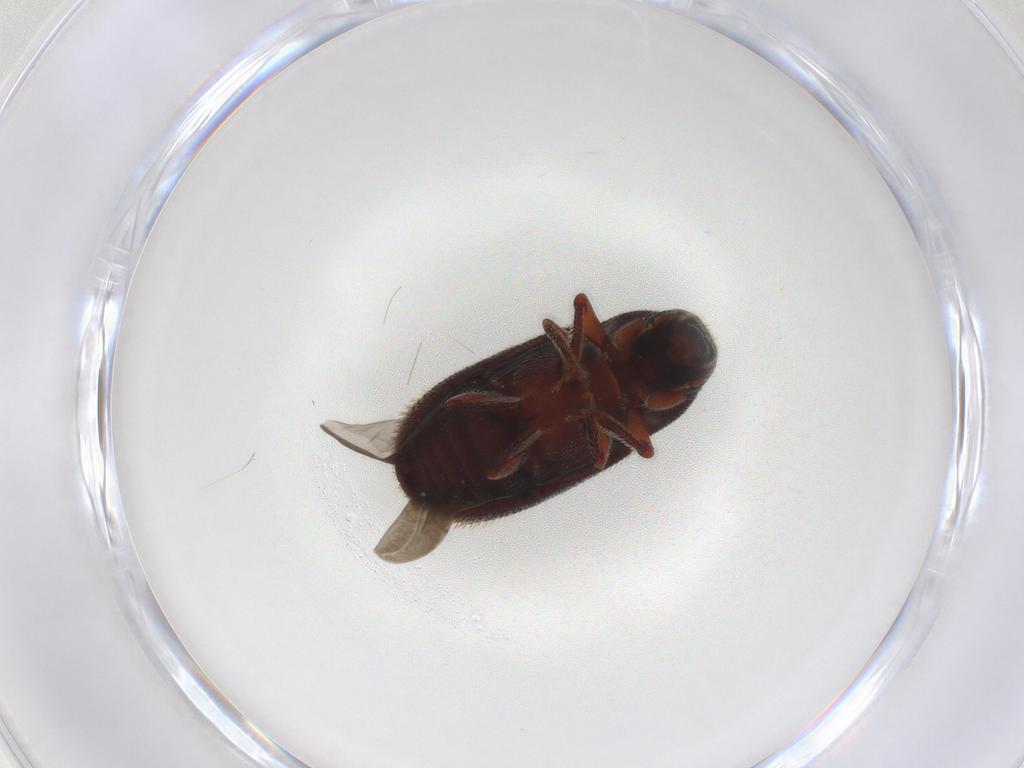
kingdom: Animalia
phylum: Arthropoda
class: Insecta
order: Coleoptera
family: Curculionidae
